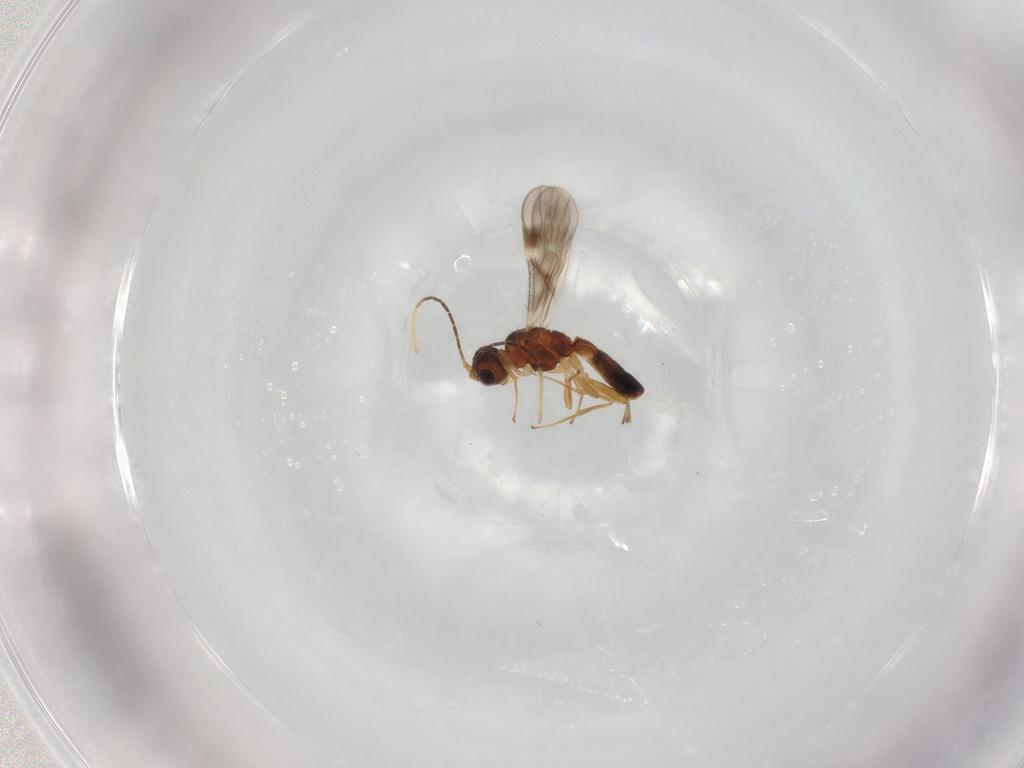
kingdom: Animalia
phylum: Arthropoda
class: Insecta
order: Hymenoptera
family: Braconidae
